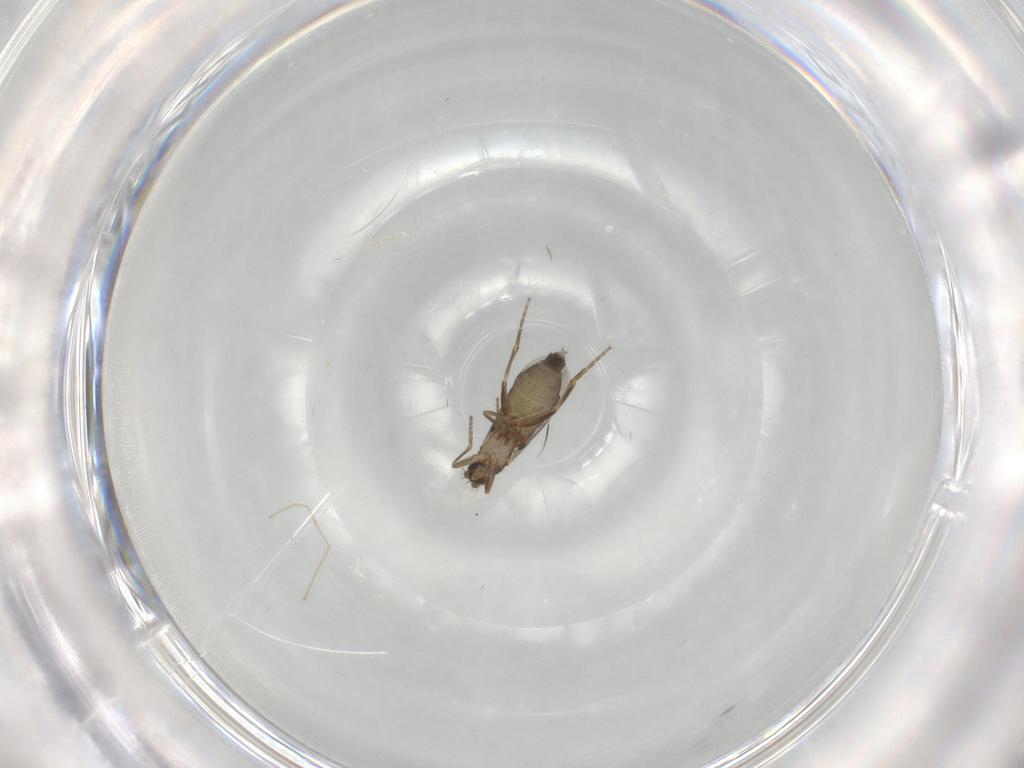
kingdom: Animalia
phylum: Arthropoda
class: Insecta
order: Diptera
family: Phoridae
